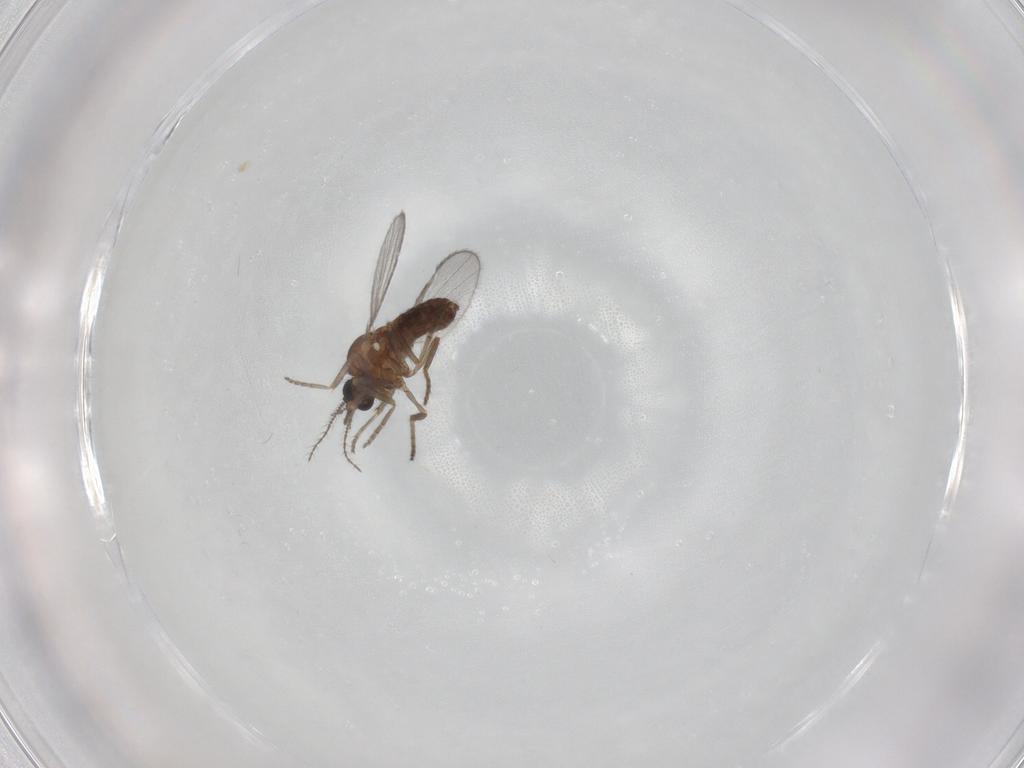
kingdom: Animalia
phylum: Arthropoda
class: Insecta
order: Diptera
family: Ceratopogonidae
